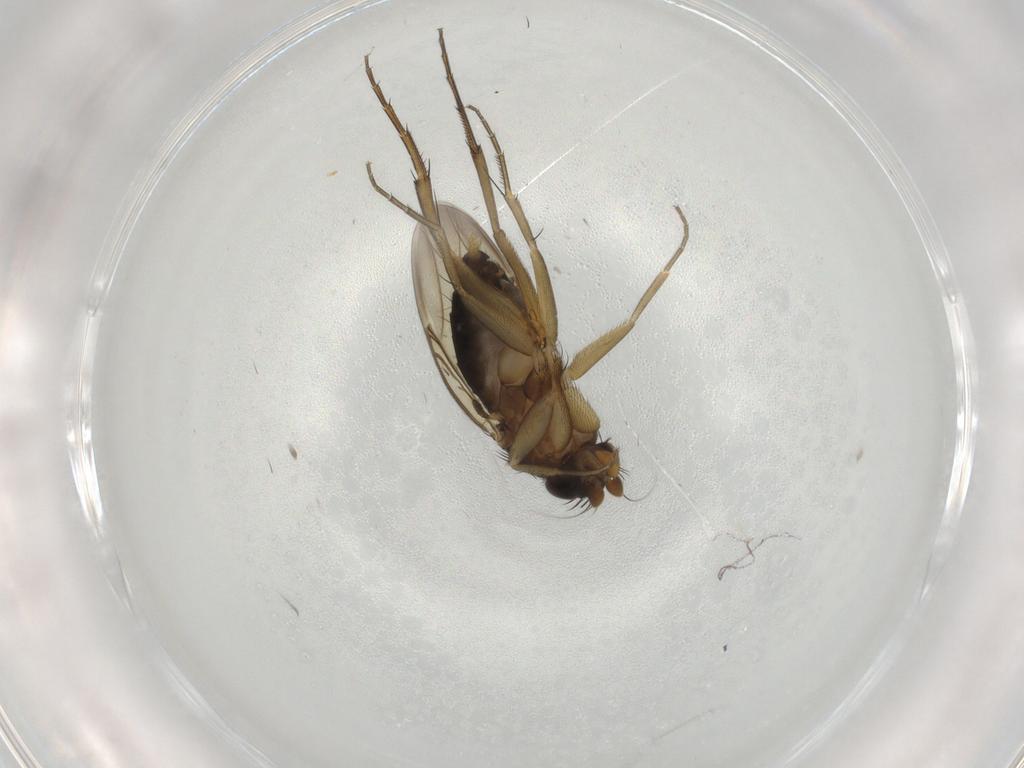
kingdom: Animalia
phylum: Arthropoda
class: Insecta
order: Diptera
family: Phoridae
